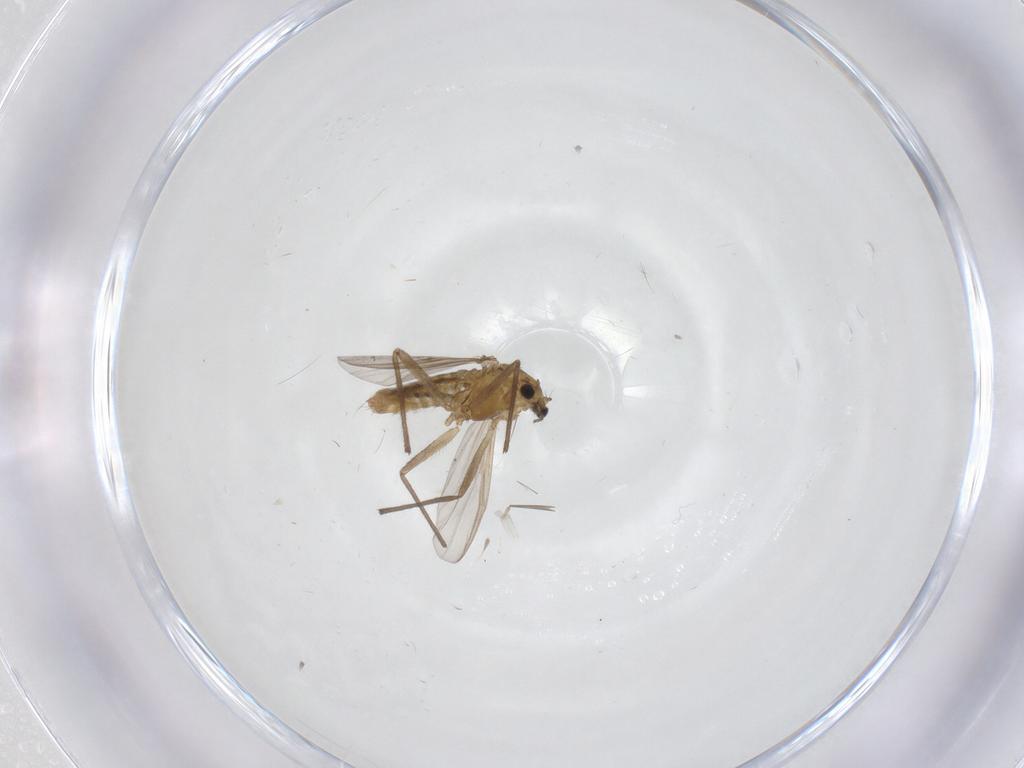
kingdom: Animalia
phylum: Arthropoda
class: Insecta
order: Diptera
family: Chironomidae
